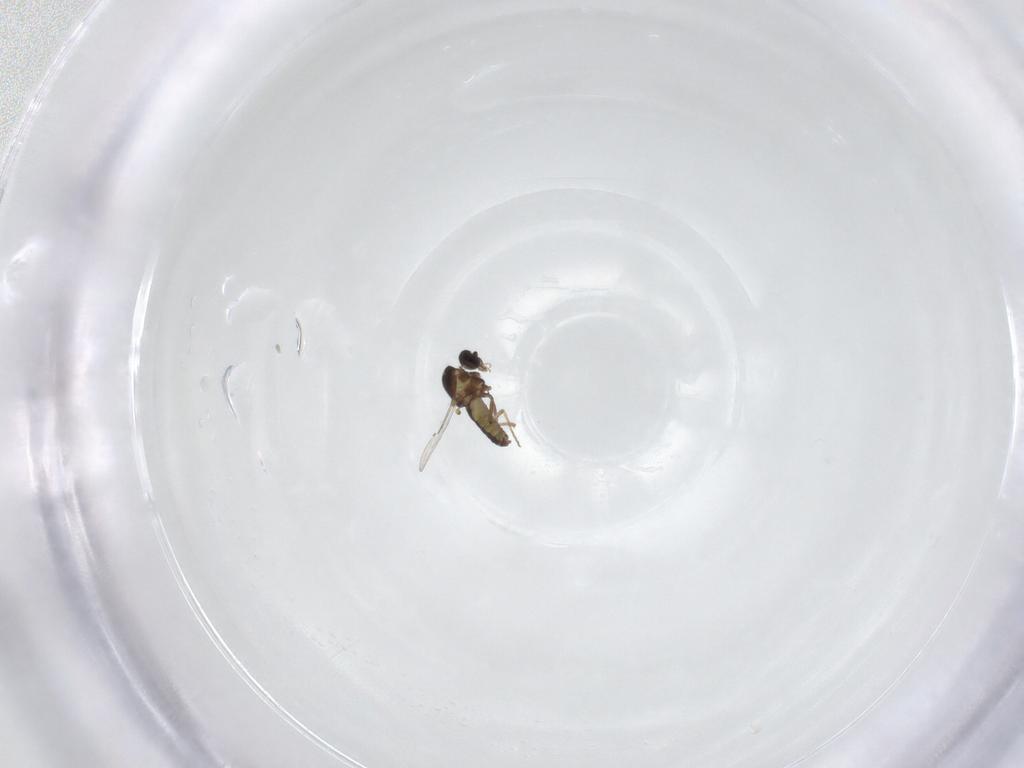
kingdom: Animalia
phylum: Arthropoda
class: Insecta
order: Diptera
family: Ceratopogonidae
